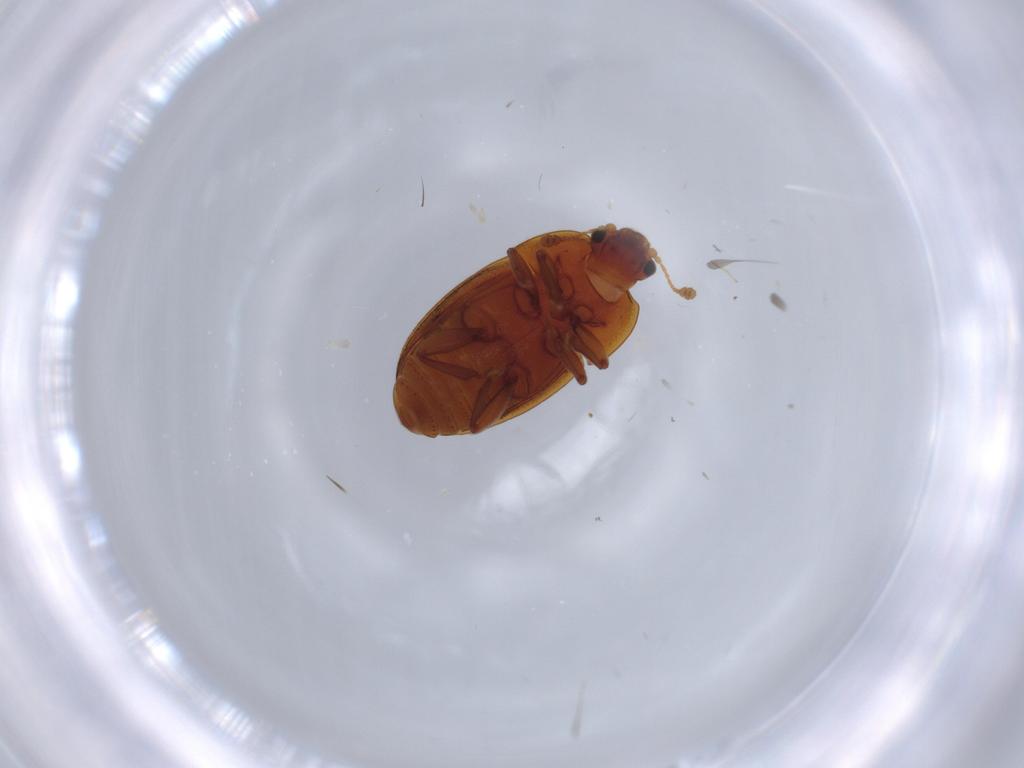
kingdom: Animalia
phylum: Arthropoda
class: Insecta
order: Coleoptera
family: Nitidulidae
